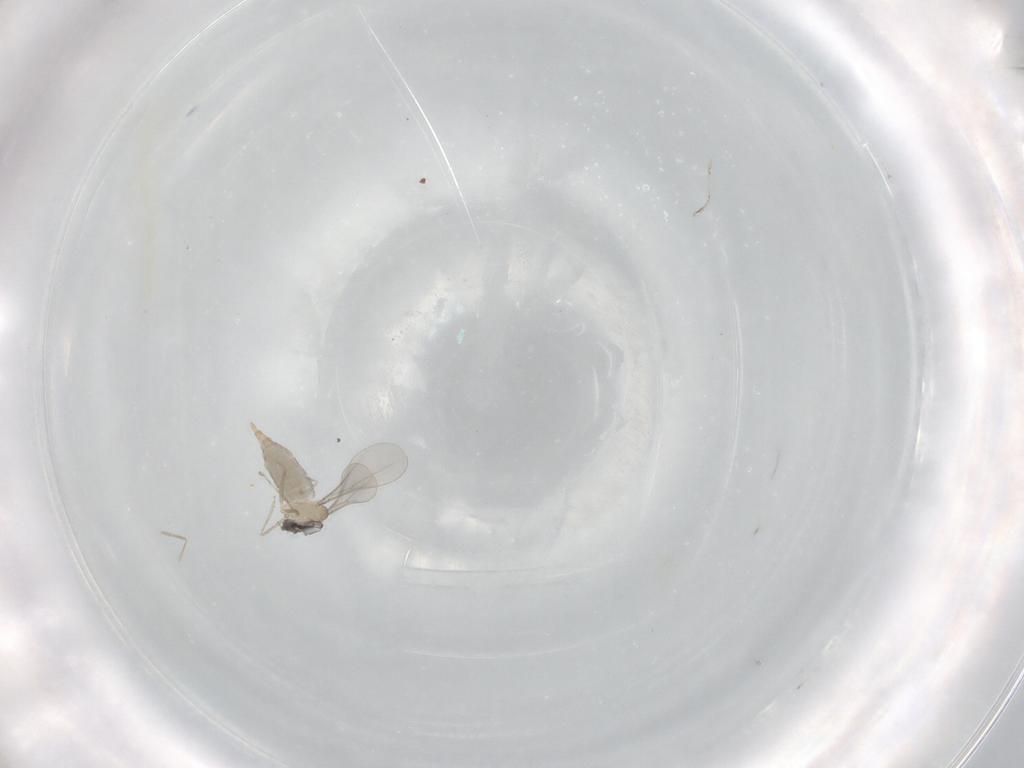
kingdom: Animalia
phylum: Arthropoda
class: Insecta
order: Diptera
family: Cecidomyiidae
